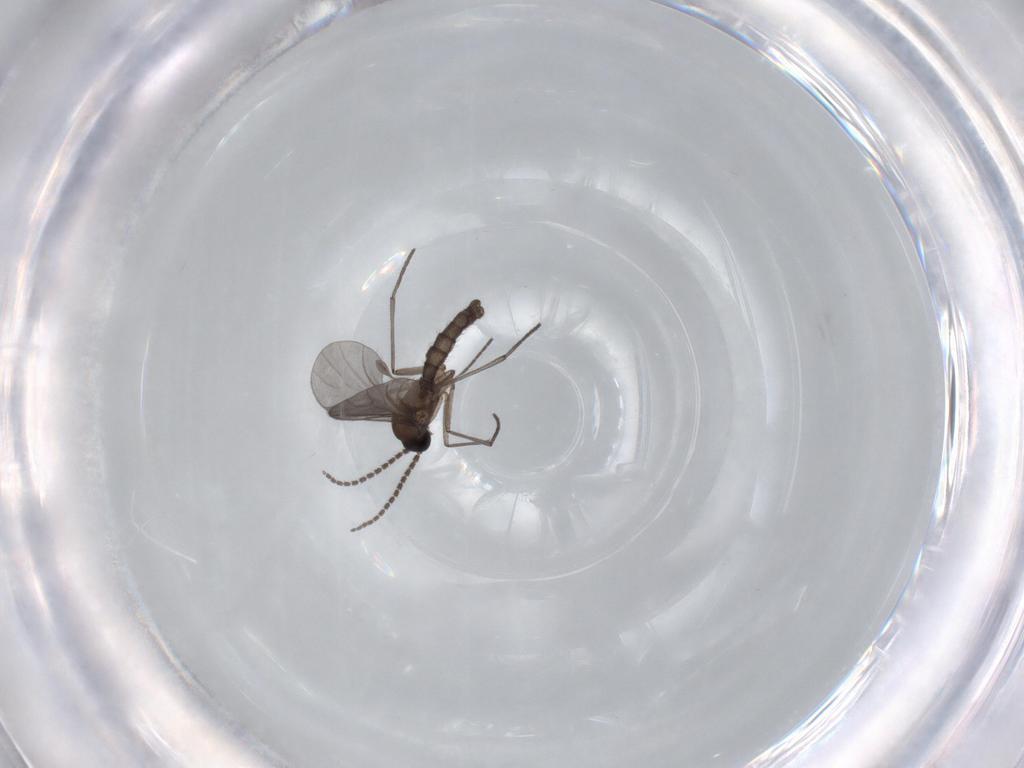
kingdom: Animalia
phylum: Arthropoda
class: Insecta
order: Diptera
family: Sciaridae
